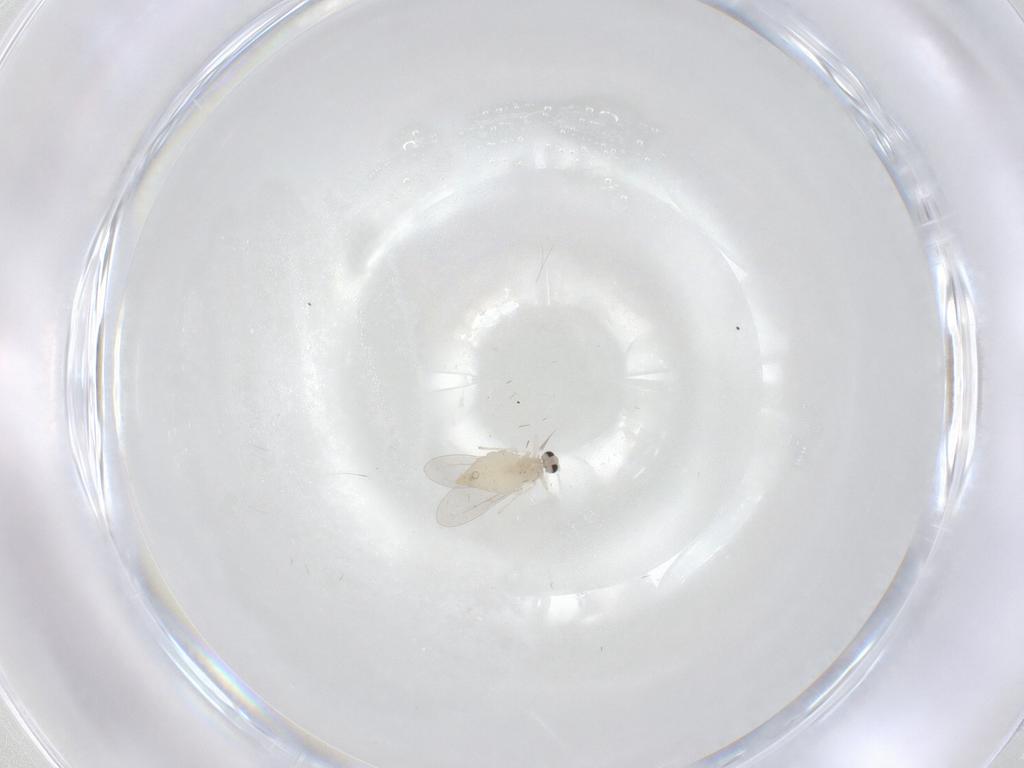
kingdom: Animalia
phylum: Arthropoda
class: Insecta
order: Diptera
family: Cecidomyiidae
